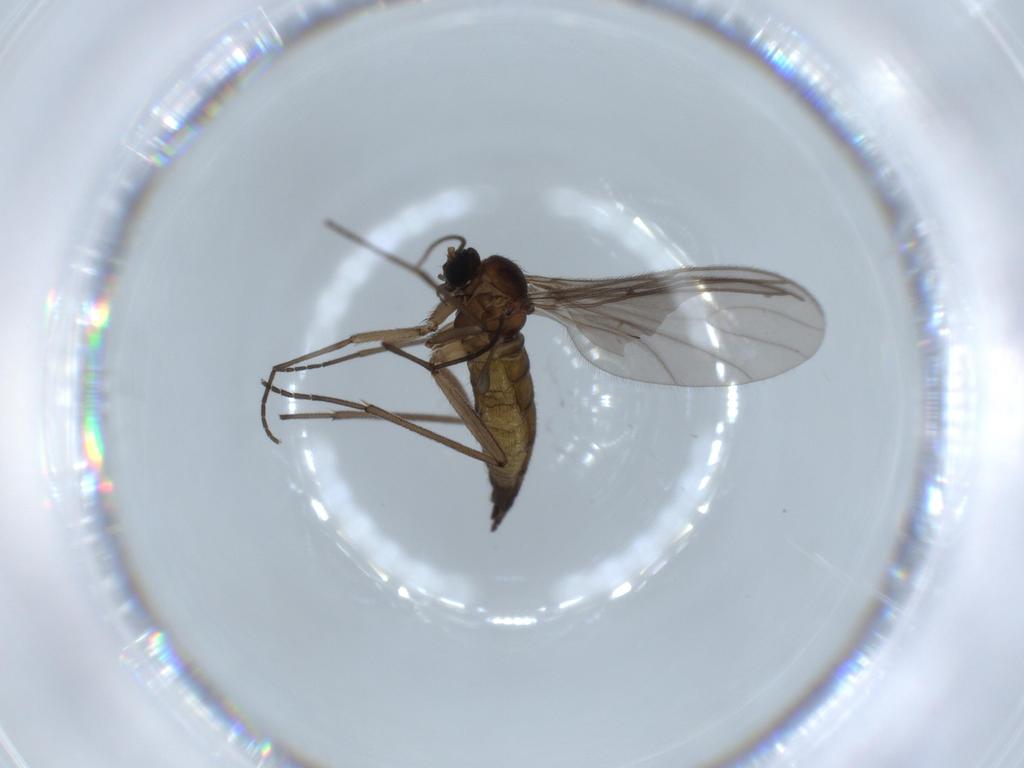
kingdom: Animalia
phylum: Arthropoda
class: Insecta
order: Diptera
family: Sciaridae
